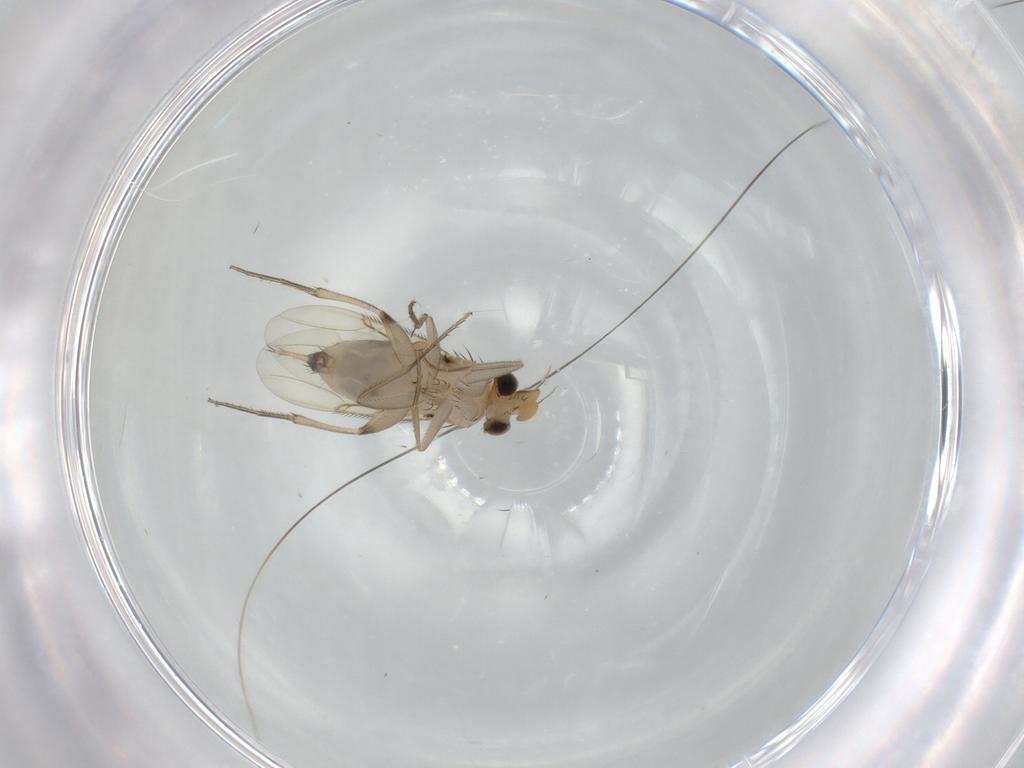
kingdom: Animalia
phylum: Arthropoda
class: Insecta
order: Diptera
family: Phoridae
